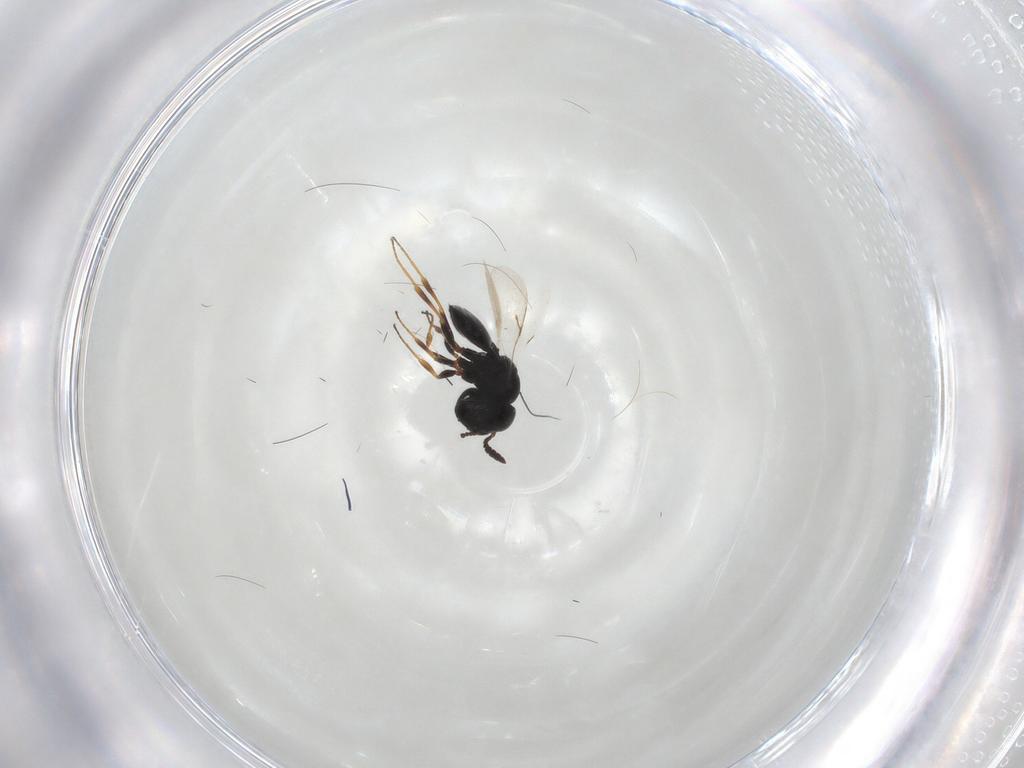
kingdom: Animalia
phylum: Arthropoda
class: Insecta
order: Hymenoptera
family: Scelionidae
